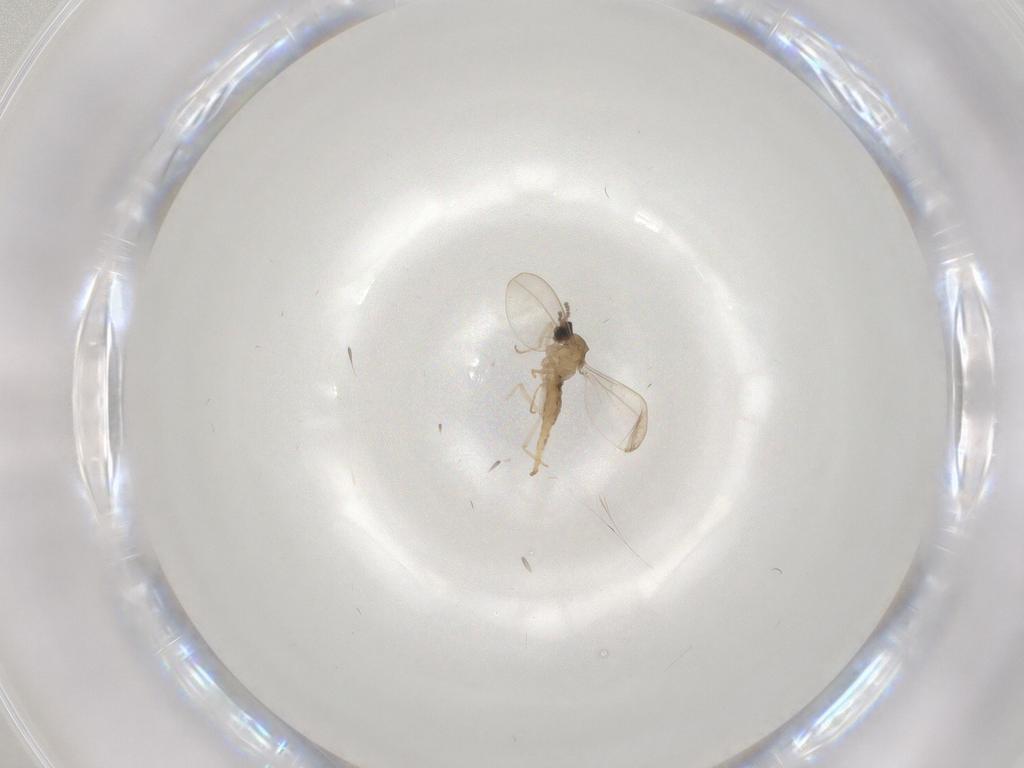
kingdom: Animalia
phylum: Arthropoda
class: Insecta
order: Diptera
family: Cecidomyiidae
